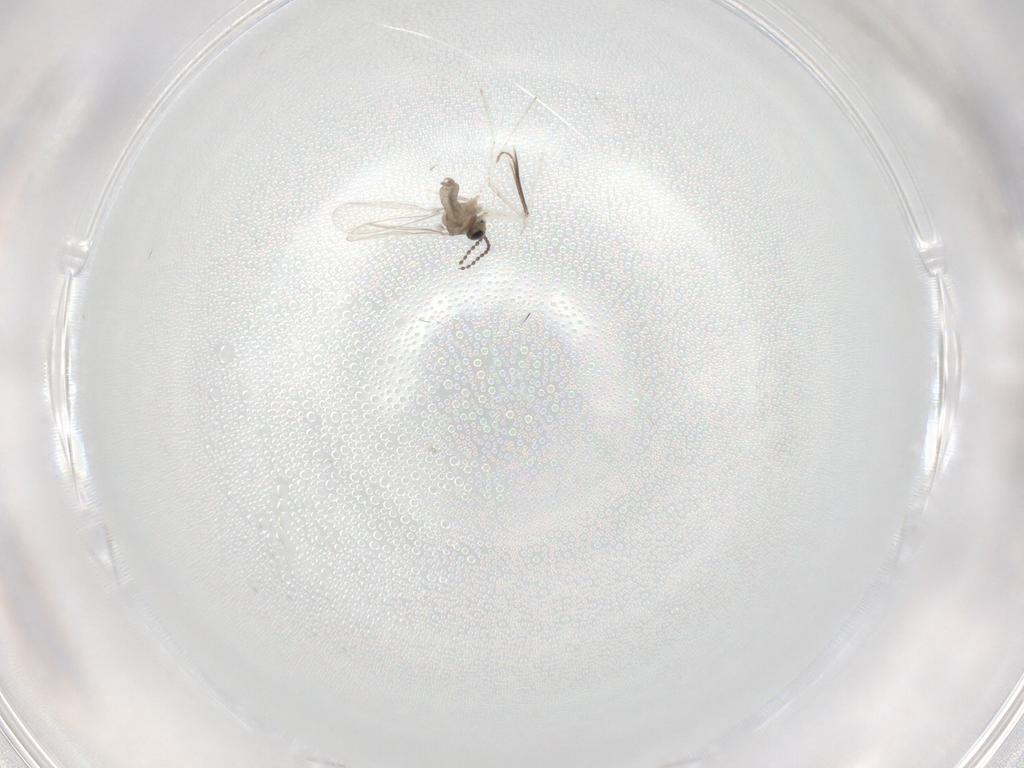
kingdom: Animalia
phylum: Arthropoda
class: Insecta
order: Diptera
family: Cecidomyiidae
